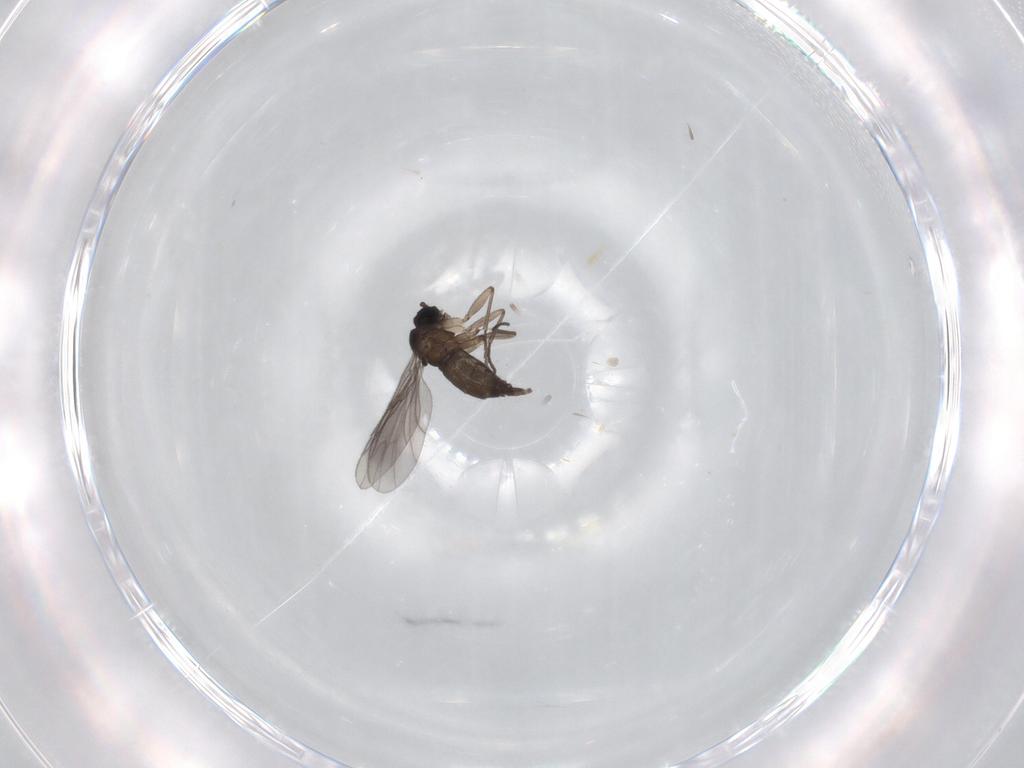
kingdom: Animalia
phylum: Arthropoda
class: Insecta
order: Diptera
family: Sciaridae
